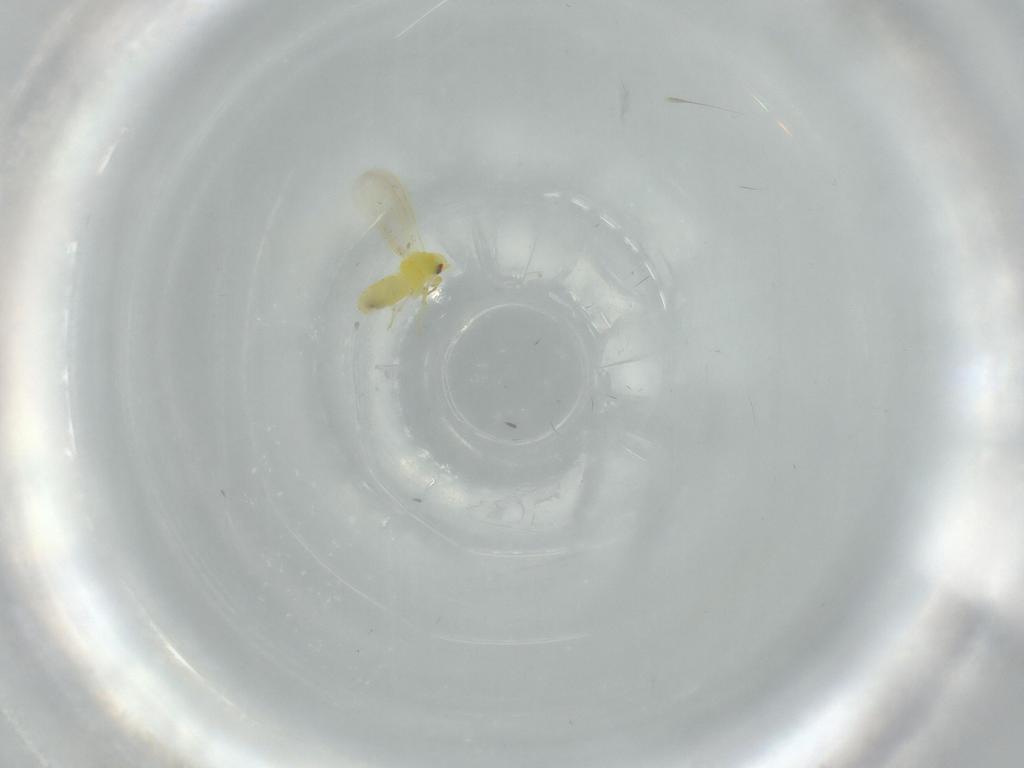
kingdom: Animalia
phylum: Arthropoda
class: Insecta
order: Hemiptera
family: Aleyrodidae
